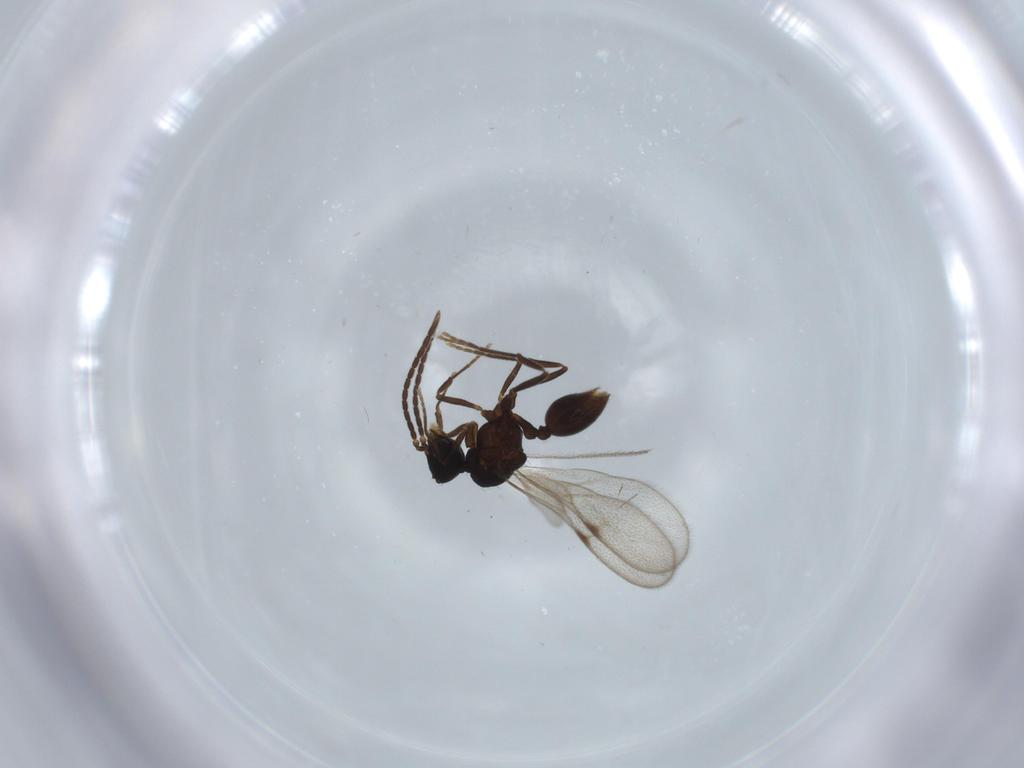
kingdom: Animalia
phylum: Arthropoda
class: Insecta
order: Hymenoptera
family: Formicidae
